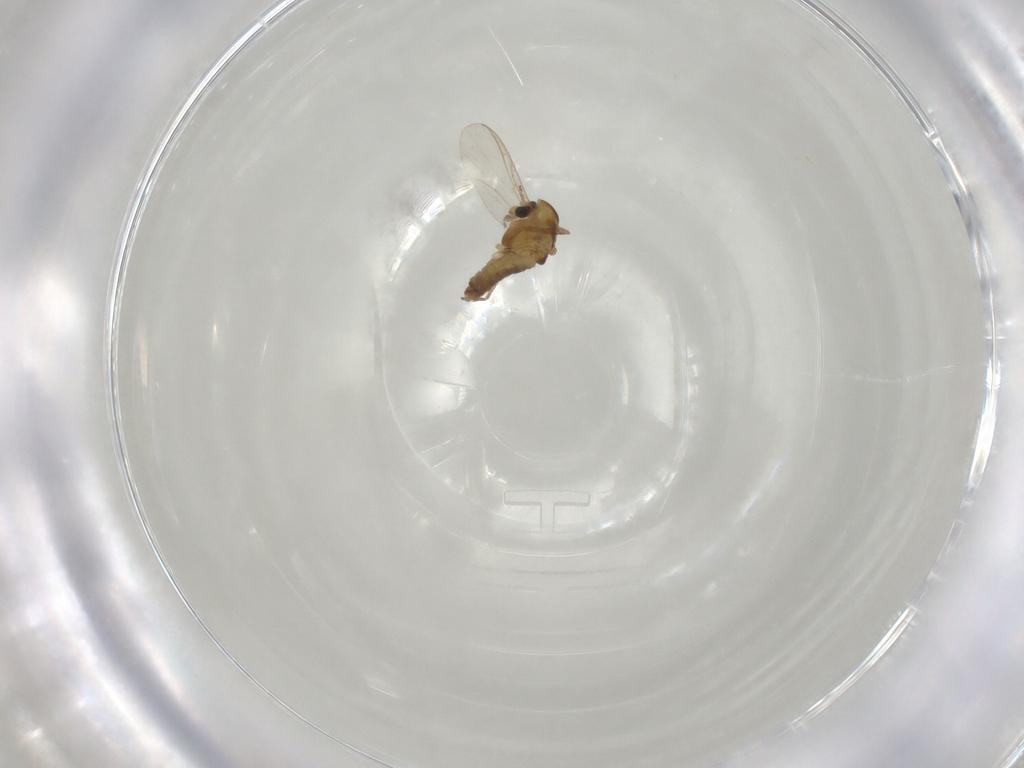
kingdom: Animalia
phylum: Arthropoda
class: Insecta
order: Diptera
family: Chironomidae
